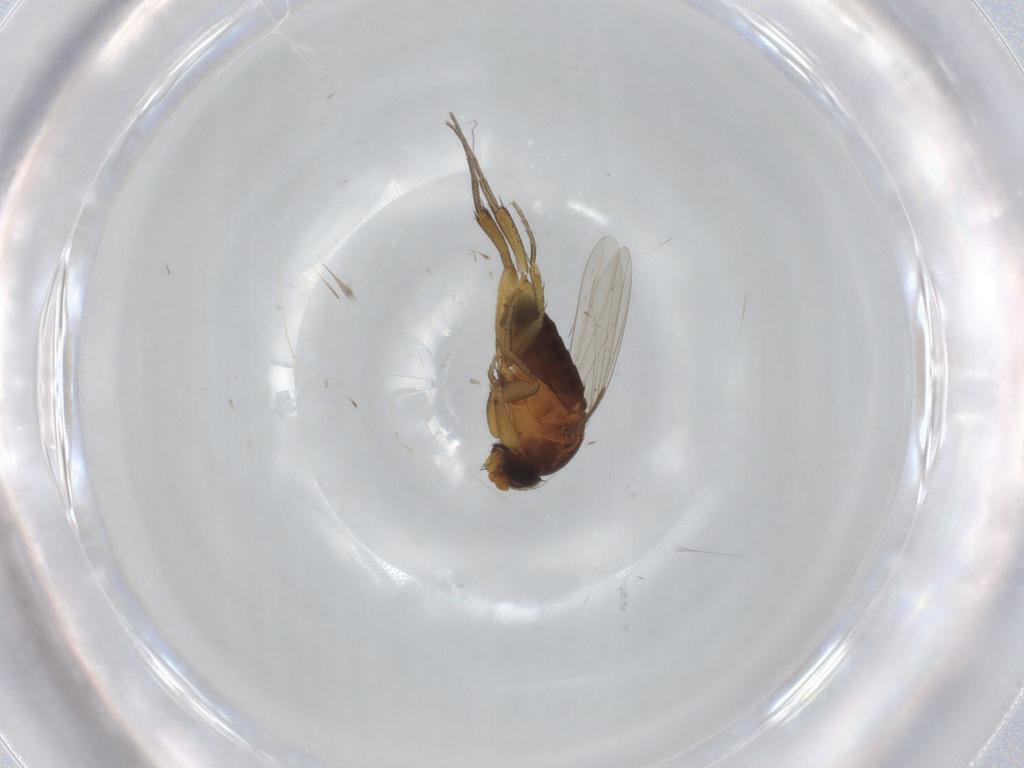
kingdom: Animalia
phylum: Arthropoda
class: Insecta
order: Diptera
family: Phoridae
